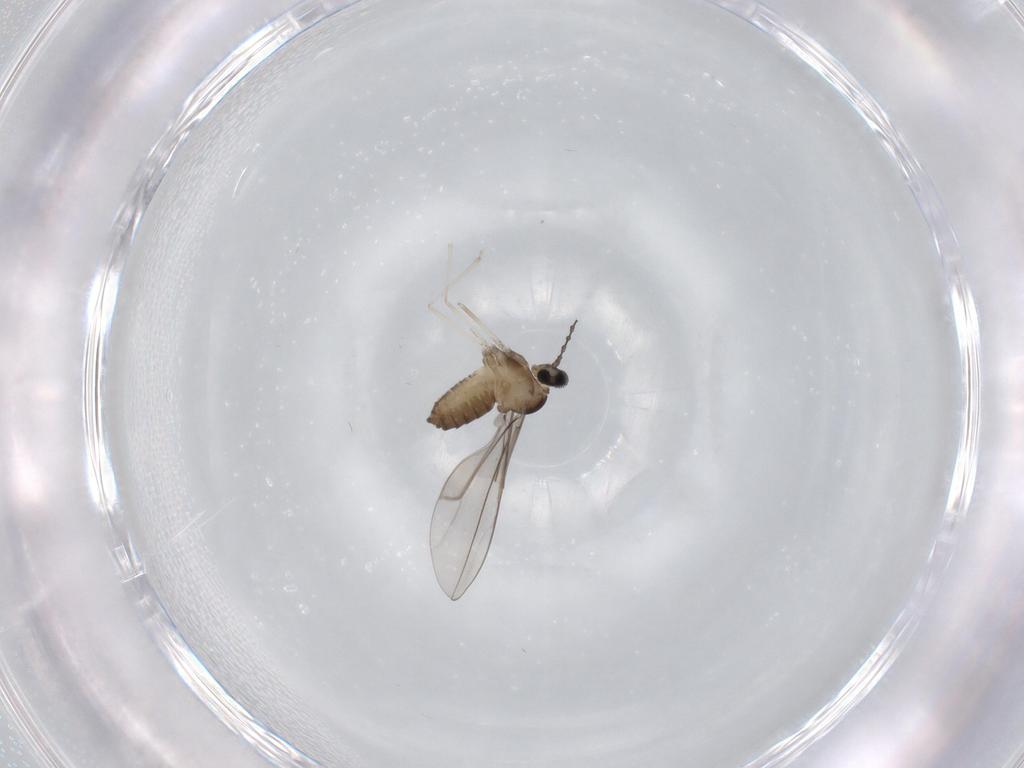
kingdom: Animalia
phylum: Arthropoda
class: Insecta
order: Diptera
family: Cecidomyiidae
